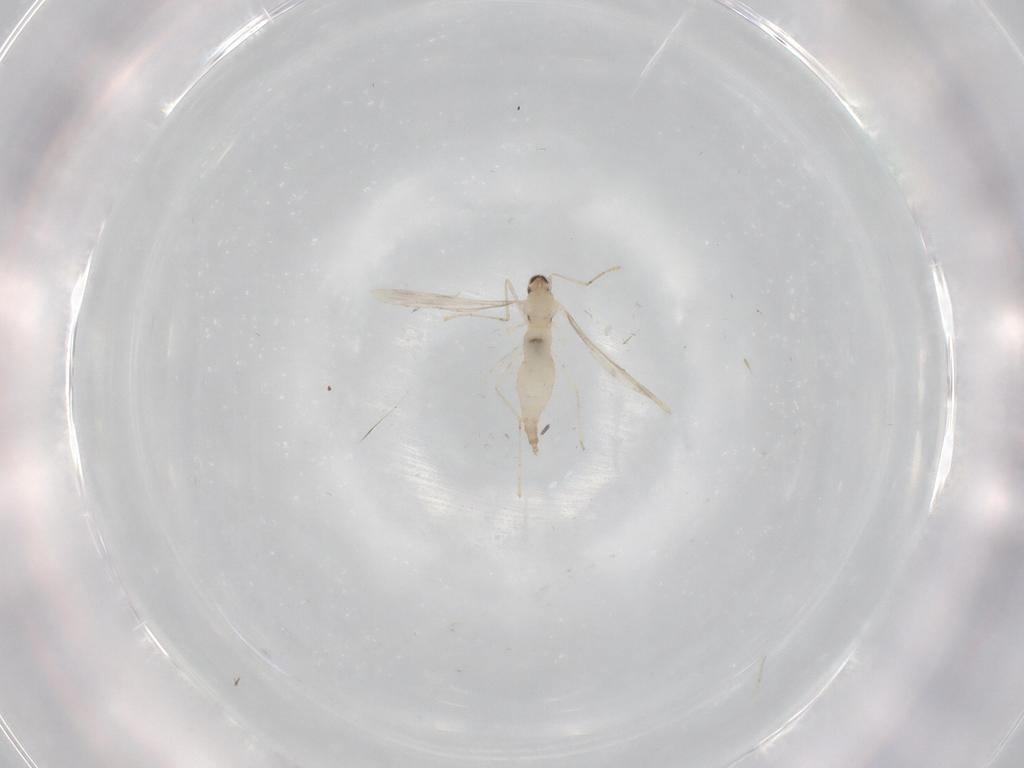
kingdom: Animalia
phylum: Arthropoda
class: Insecta
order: Diptera
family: Cecidomyiidae
